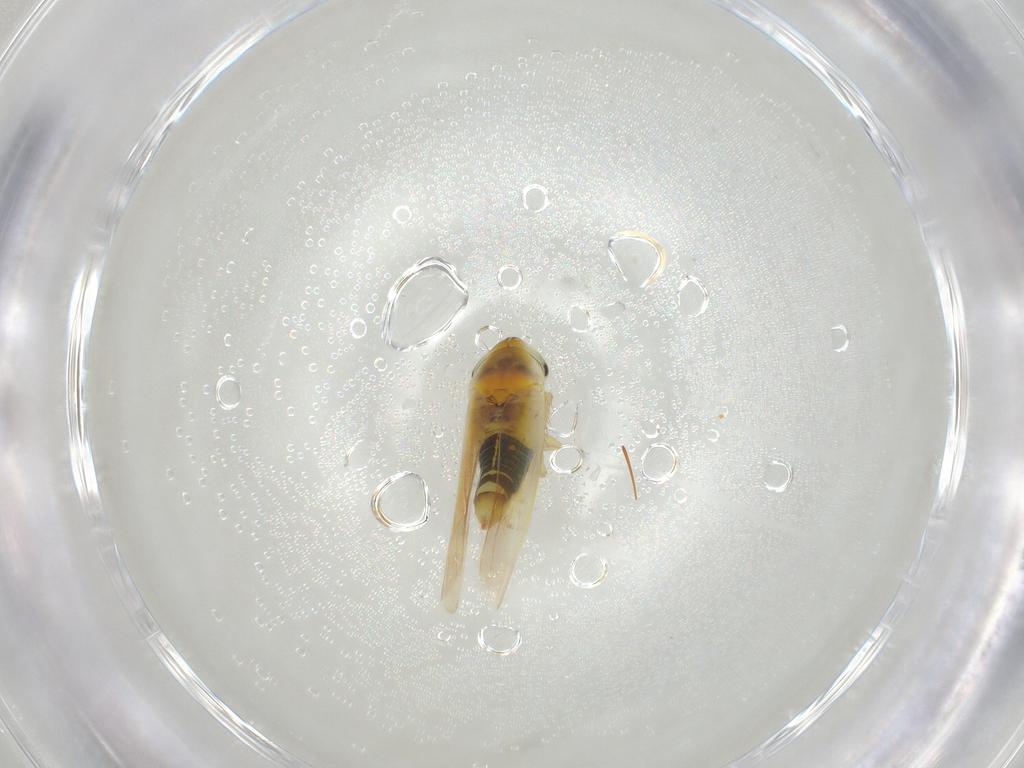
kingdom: Animalia
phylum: Arthropoda
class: Insecta
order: Hemiptera
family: Cicadellidae
